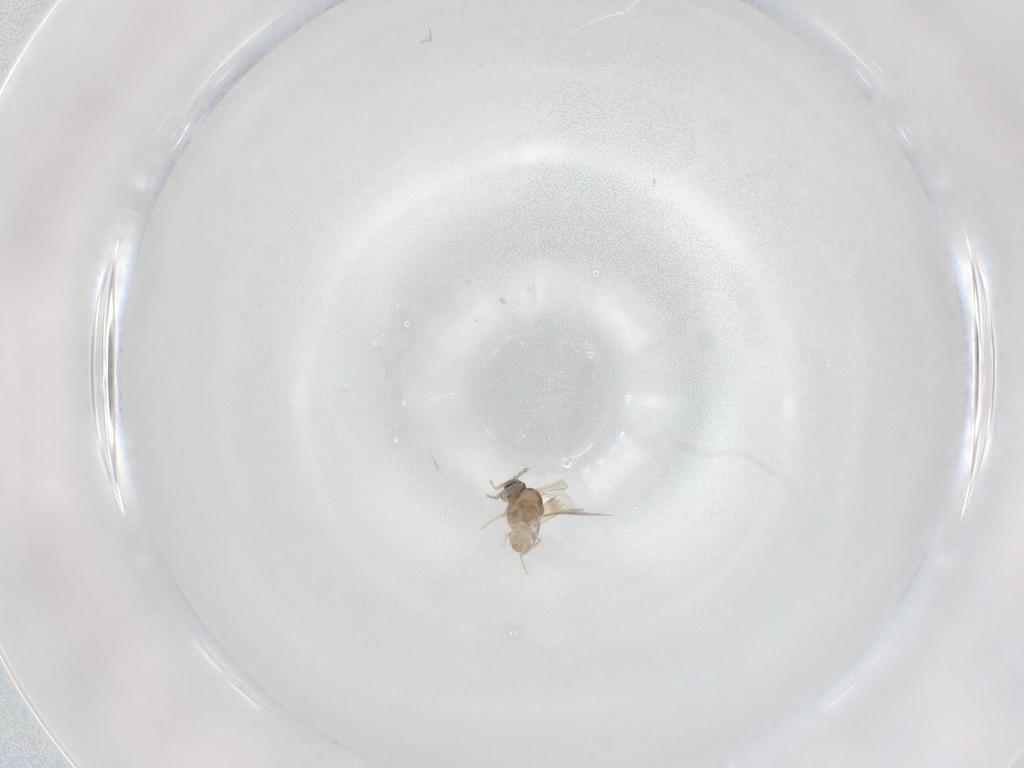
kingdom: Animalia
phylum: Arthropoda
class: Insecta
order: Diptera
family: Cecidomyiidae
